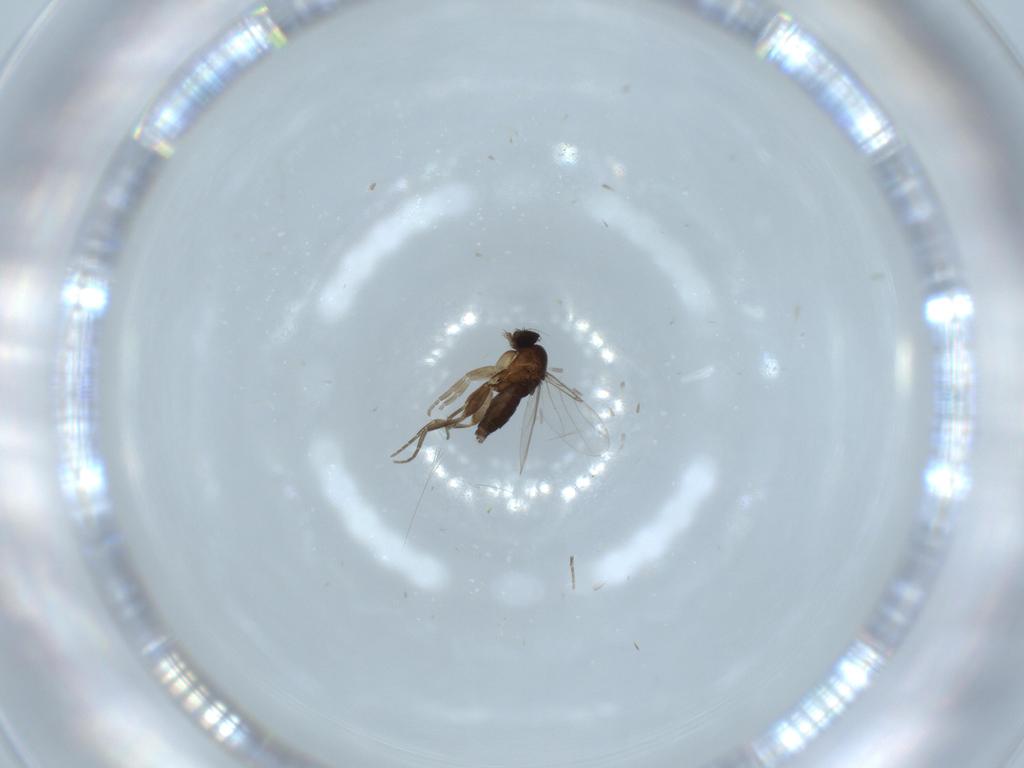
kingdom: Animalia
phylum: Arthropoda
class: Insecta
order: Diptera
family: Phoridae
